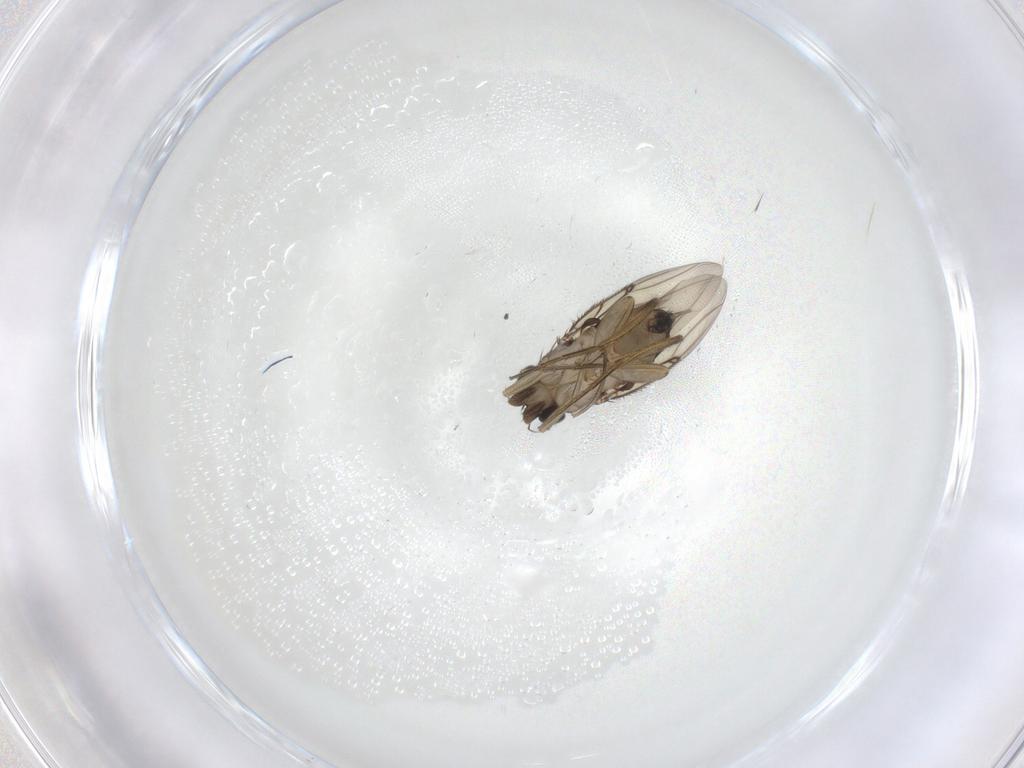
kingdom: Animalia
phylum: Arthropoda
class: Insecta
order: Diptera
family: Phoridae
